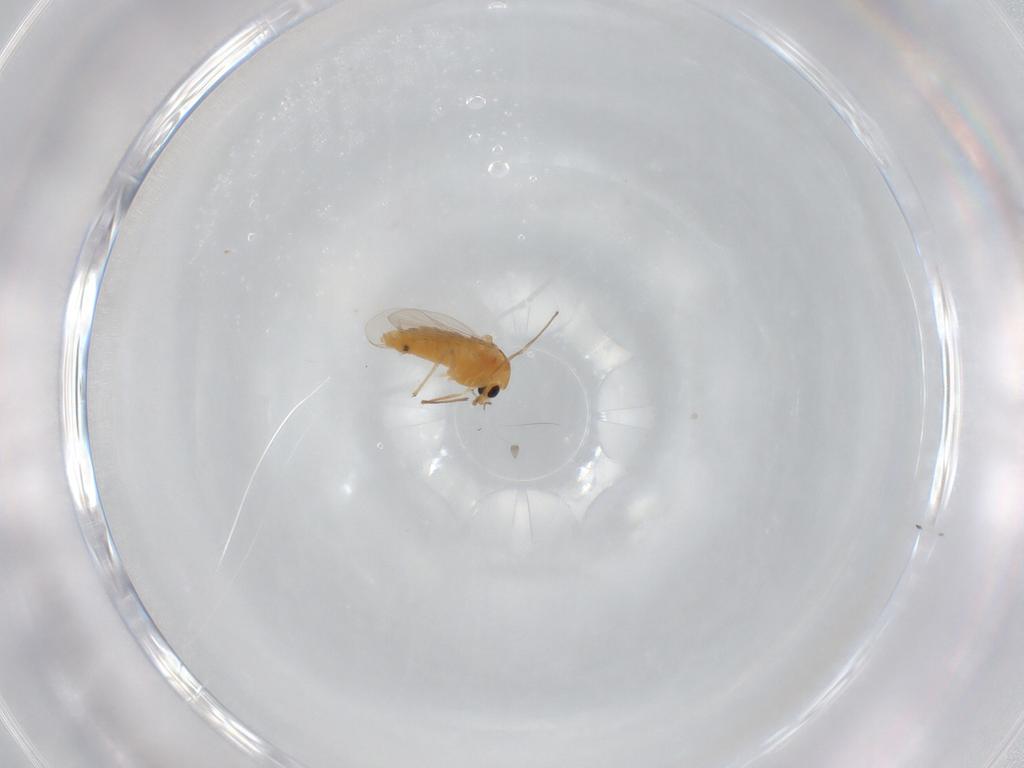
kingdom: Animalia
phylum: Arthropoda
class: Insecta
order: Diptera
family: Chironomidae
